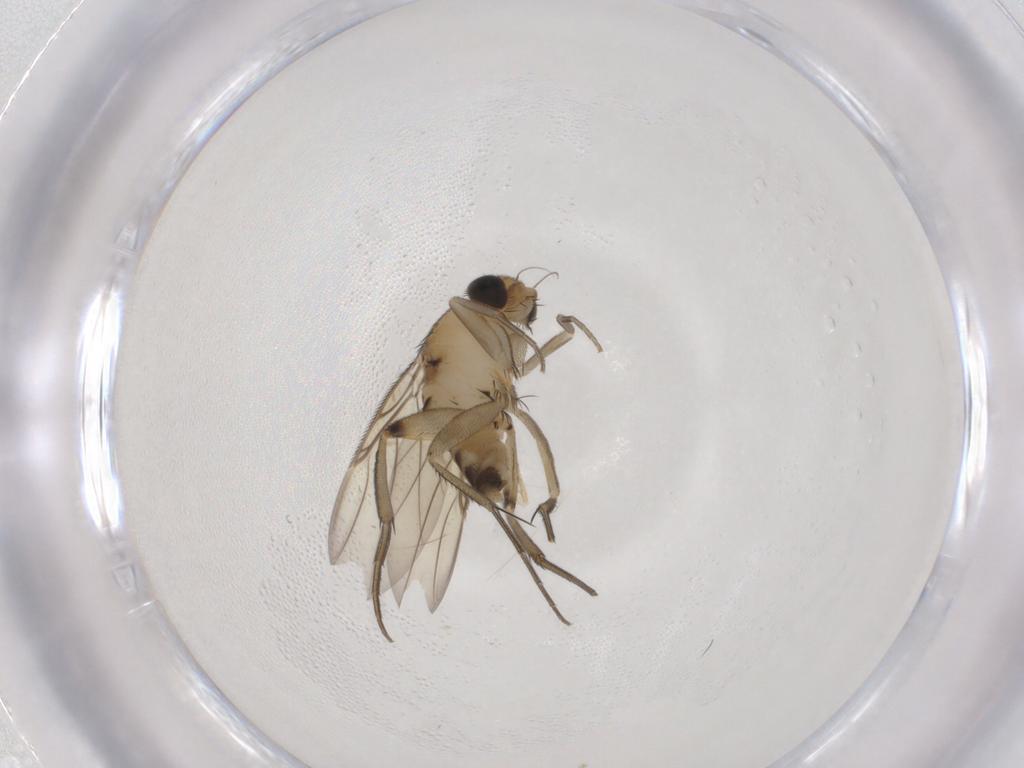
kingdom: Animalia
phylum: Arthropoda
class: Insecta
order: Diptera
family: Phoridae
